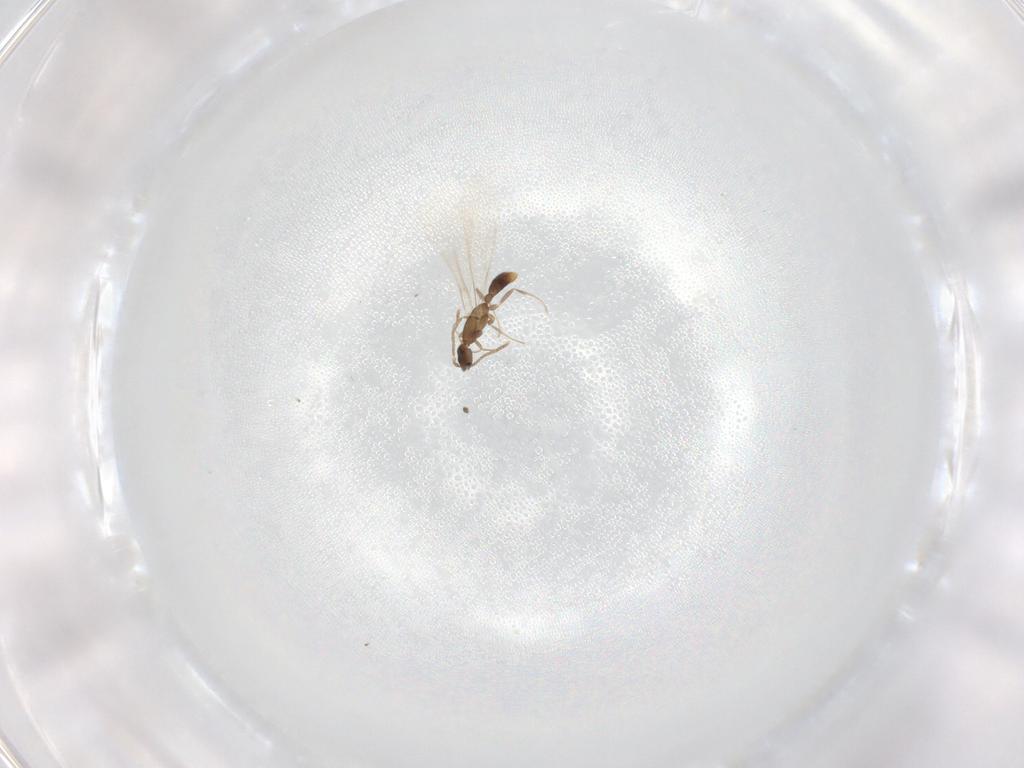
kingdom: Animalia
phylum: Arthropoda
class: Insecta
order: Hymenoptera
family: Formicidae
